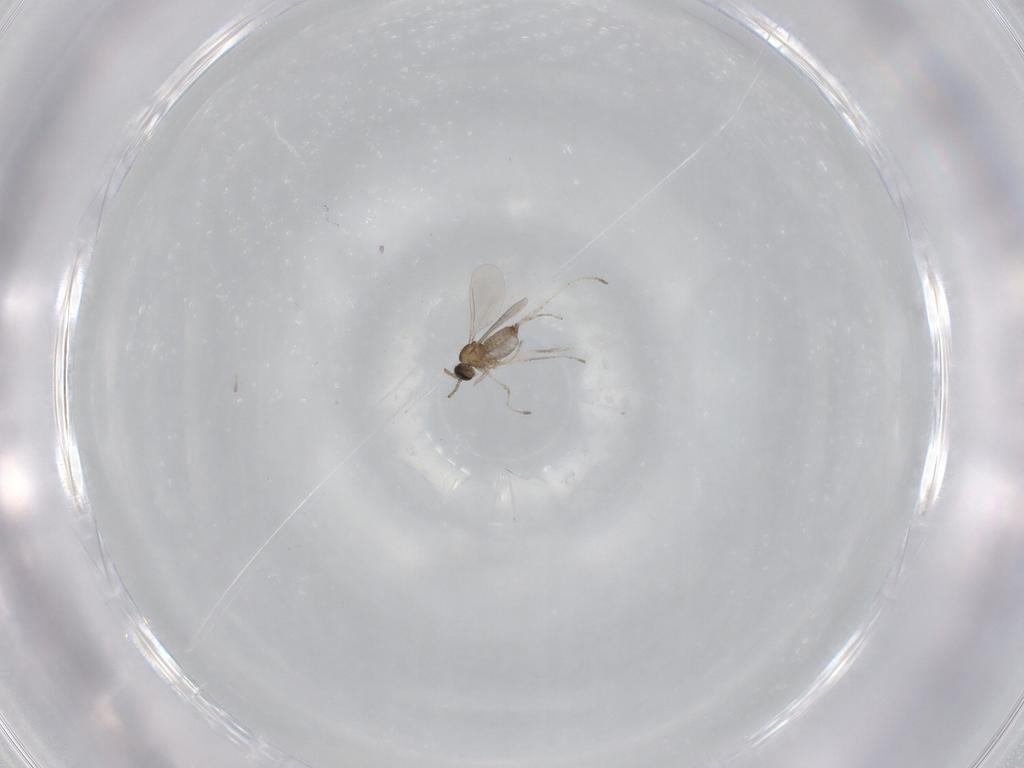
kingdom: Animalia
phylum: Arthropoda
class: Insecta
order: Diptera
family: Cecidomyiidae
